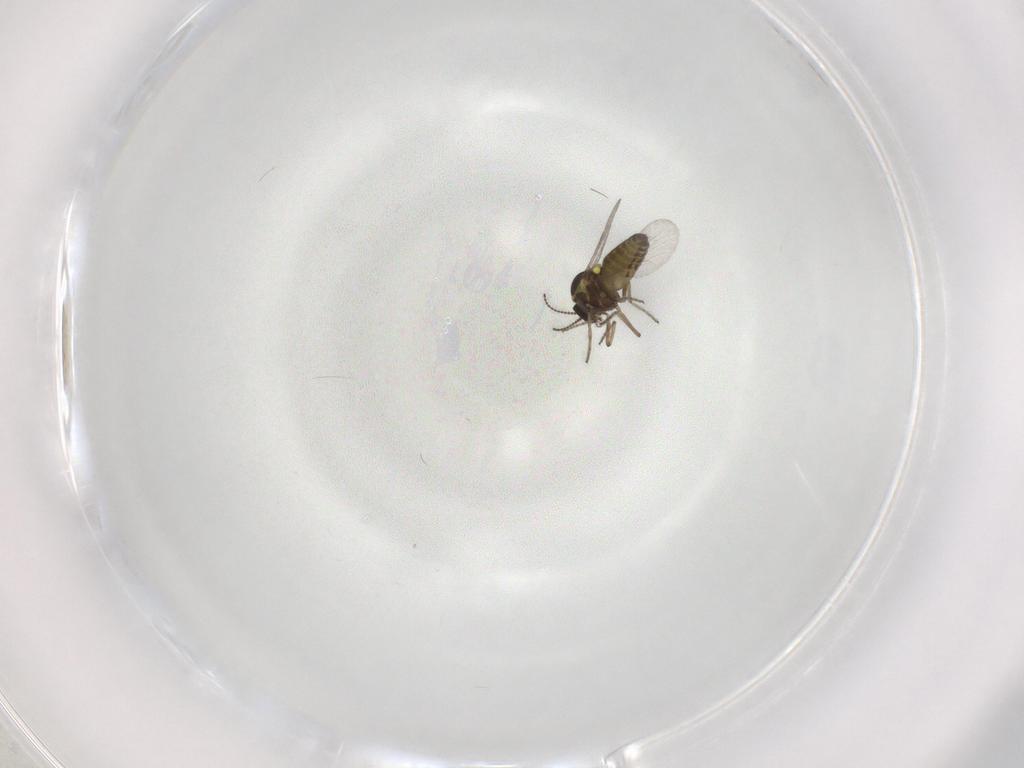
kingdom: Animalia
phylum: Arthropoda
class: Insecta
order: Diptera
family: Ceratopogonidae
